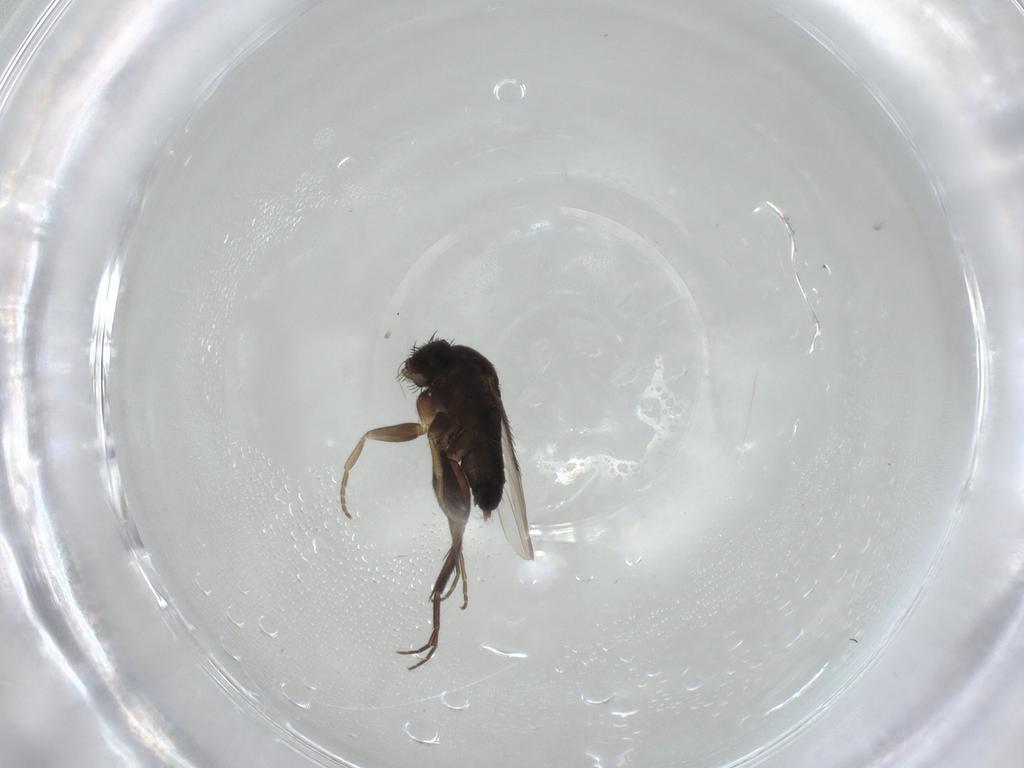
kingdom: Animalia
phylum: Arthropoda
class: Insecta
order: Diptera
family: Phoridae
